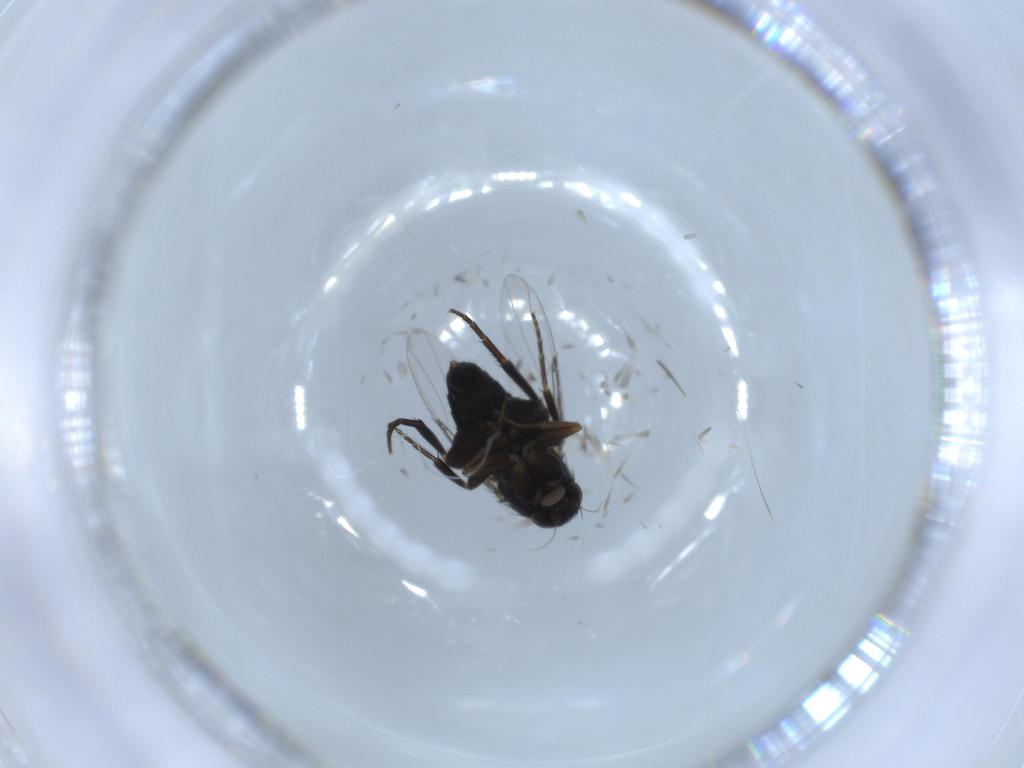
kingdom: Animalia
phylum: Arthropoda
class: Insecta
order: Diptera
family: Phoridae
